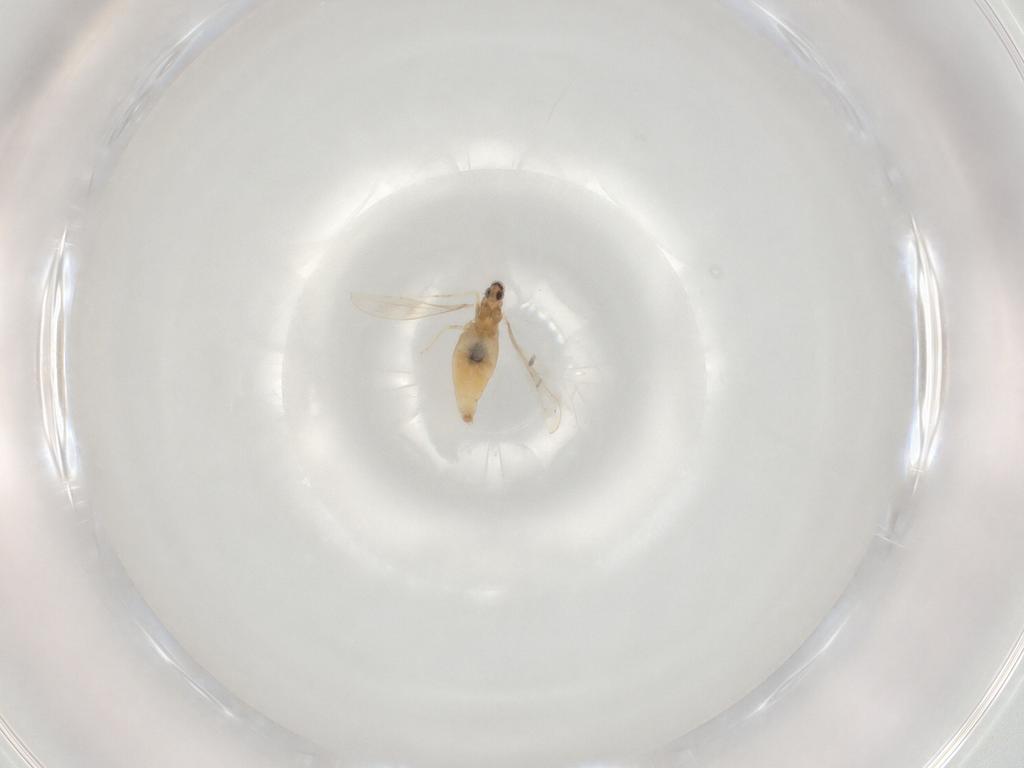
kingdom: Animalia
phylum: Arthropoda
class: Insecta
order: Diptera
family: Cecidomyiidae
